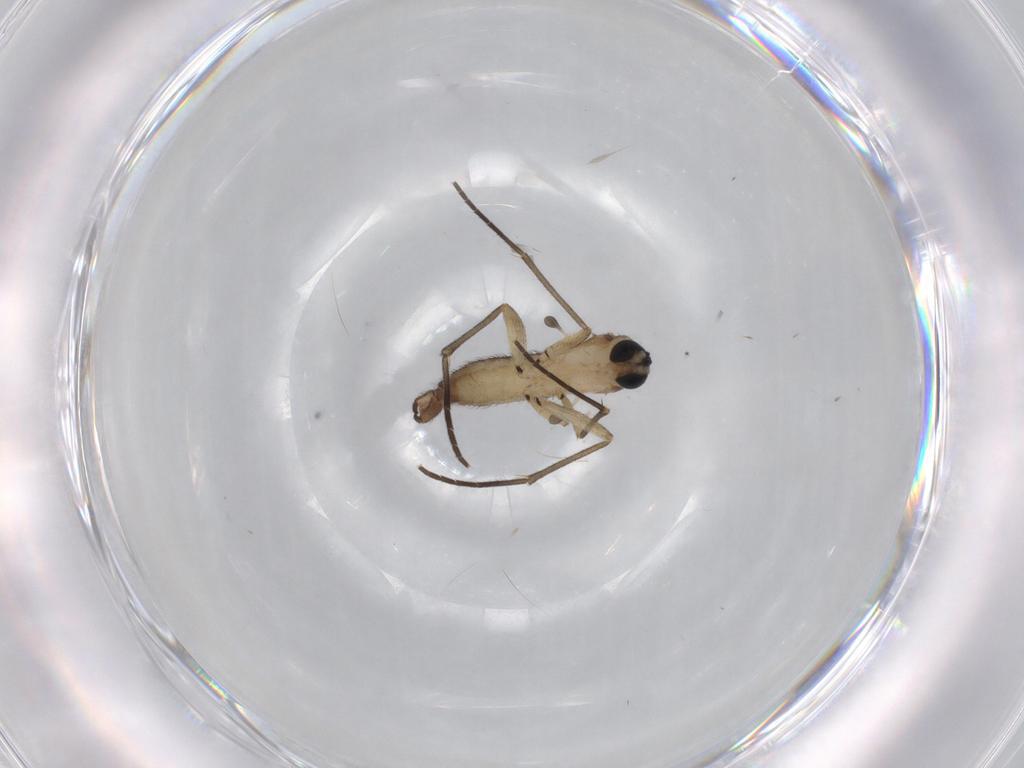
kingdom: Animalia
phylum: Arthropoda
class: Insecta
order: Diptera
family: Sciaridae
